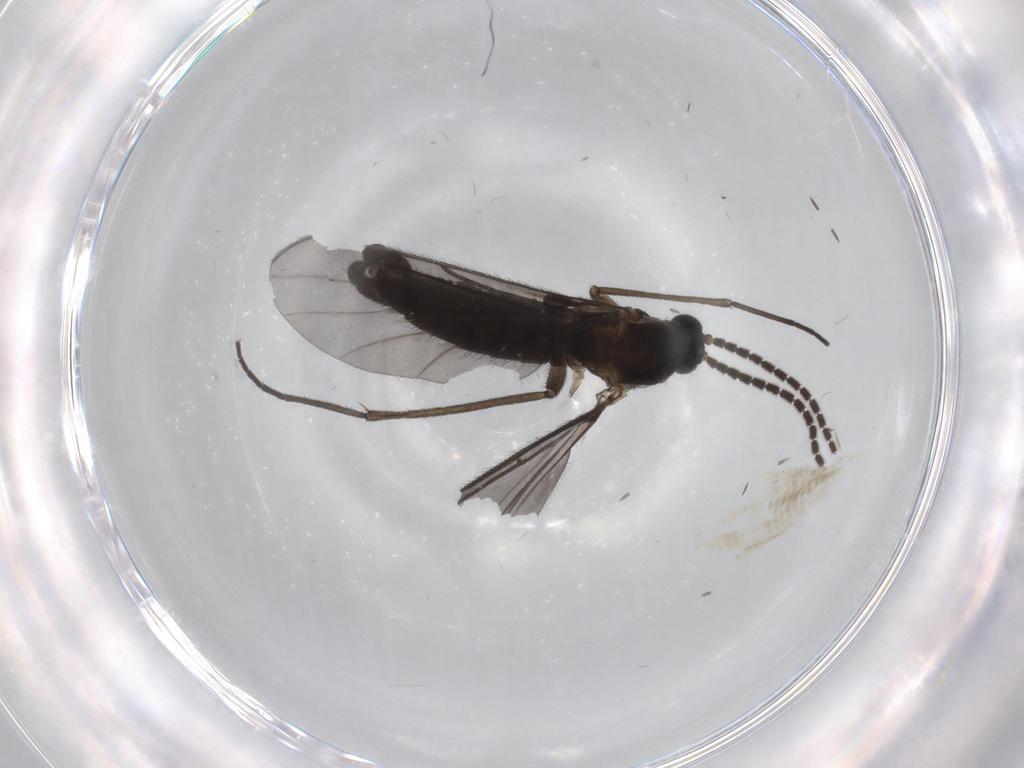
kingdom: Animalia
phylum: Arthropoda
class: Insecta
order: Diptera
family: Sciaridae
